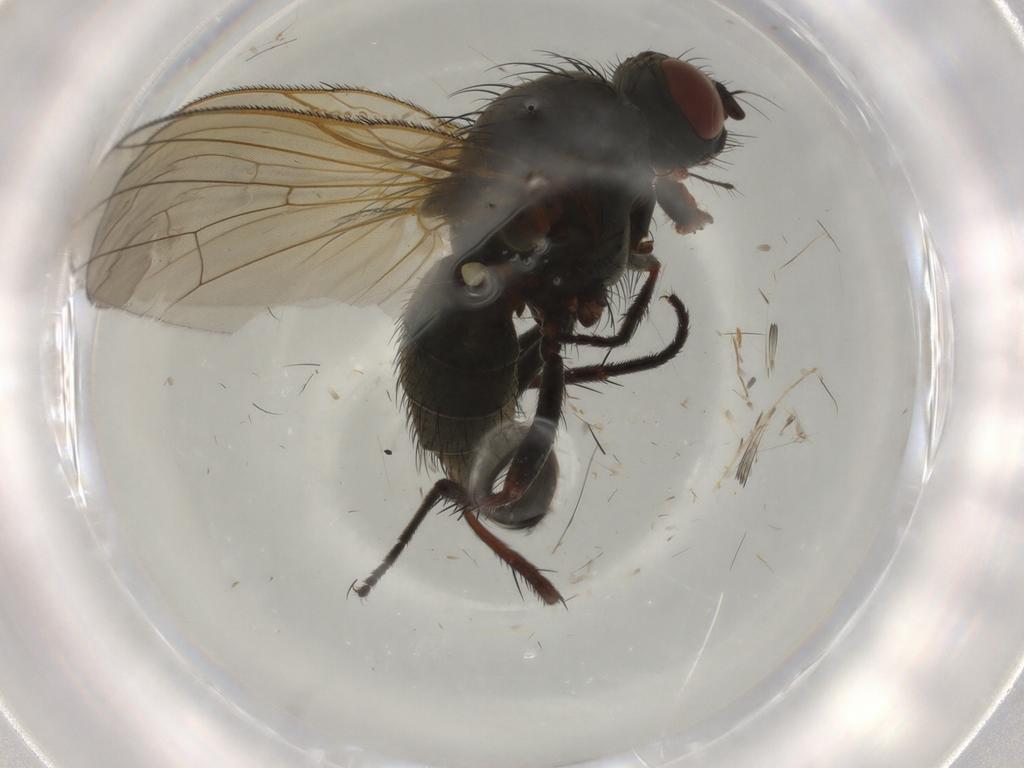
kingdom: Animalia
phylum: Arthropoda
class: Insecta
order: Diptera
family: Anthomyiidae
